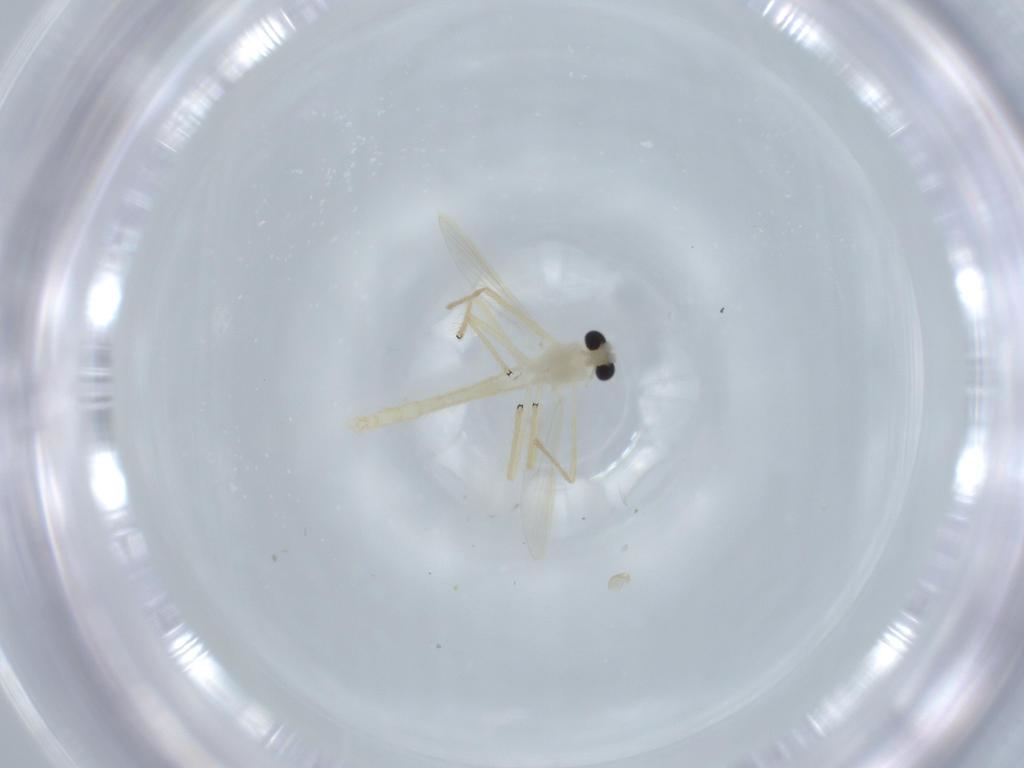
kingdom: Animalia
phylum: Arthropoda
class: Insecta
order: Diptera
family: Chironomidae
